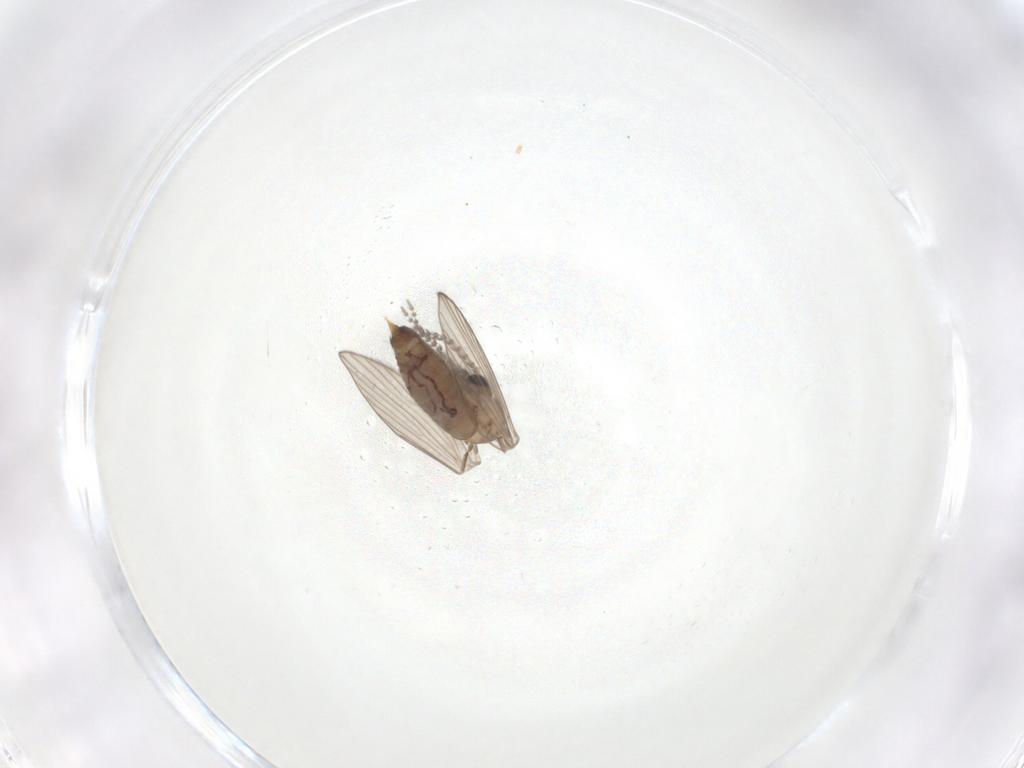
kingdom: Animalia
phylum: Arthropoda
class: Insecta
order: Diptera
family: Psychodidae
